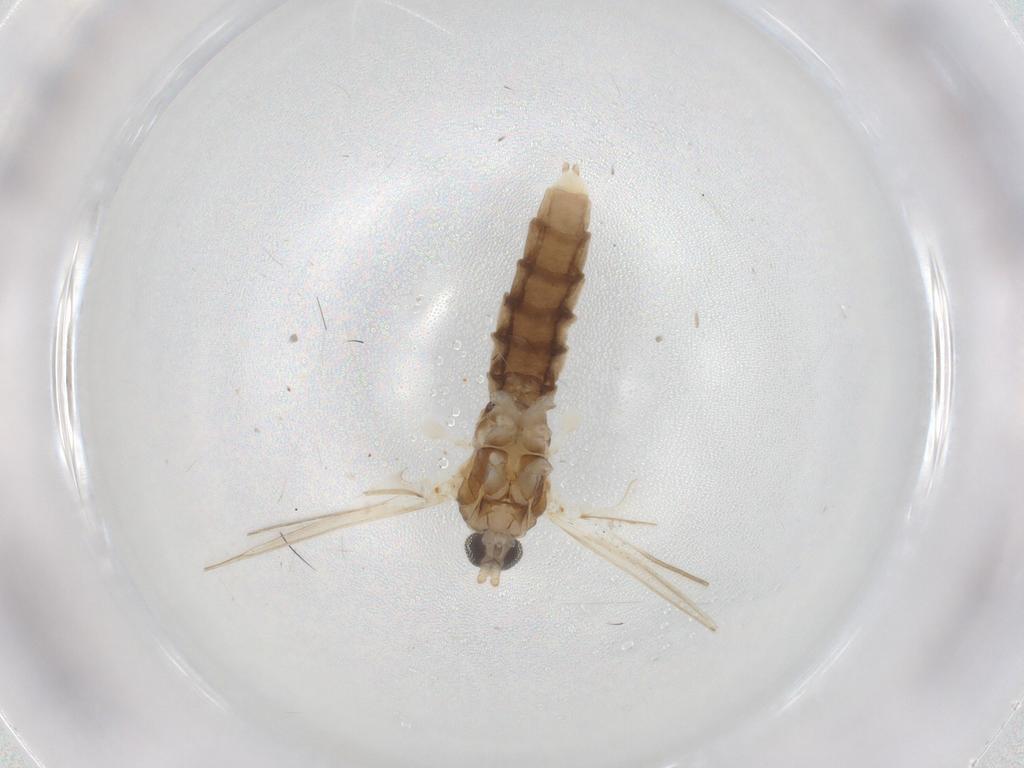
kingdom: Animalia
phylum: Arthropoda
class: Insecta
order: Diptera
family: Cecidomyiidae
